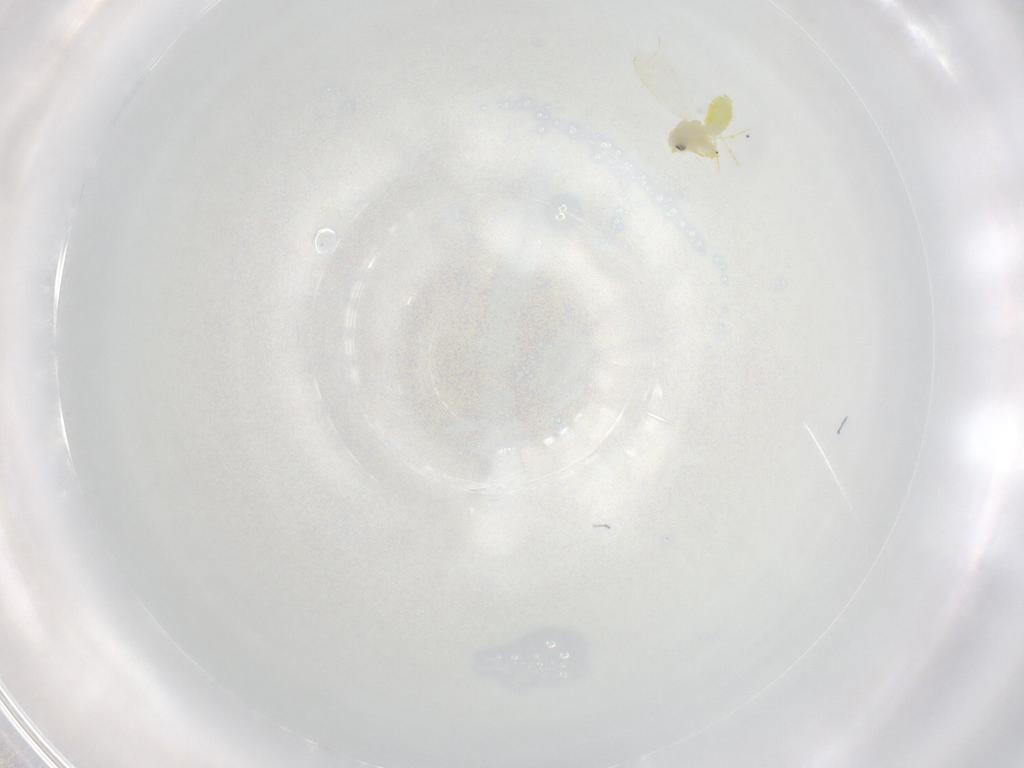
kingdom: Animalia
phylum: Arthropoda
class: Insecta
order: Hemiptera
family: Aleyrodidae
